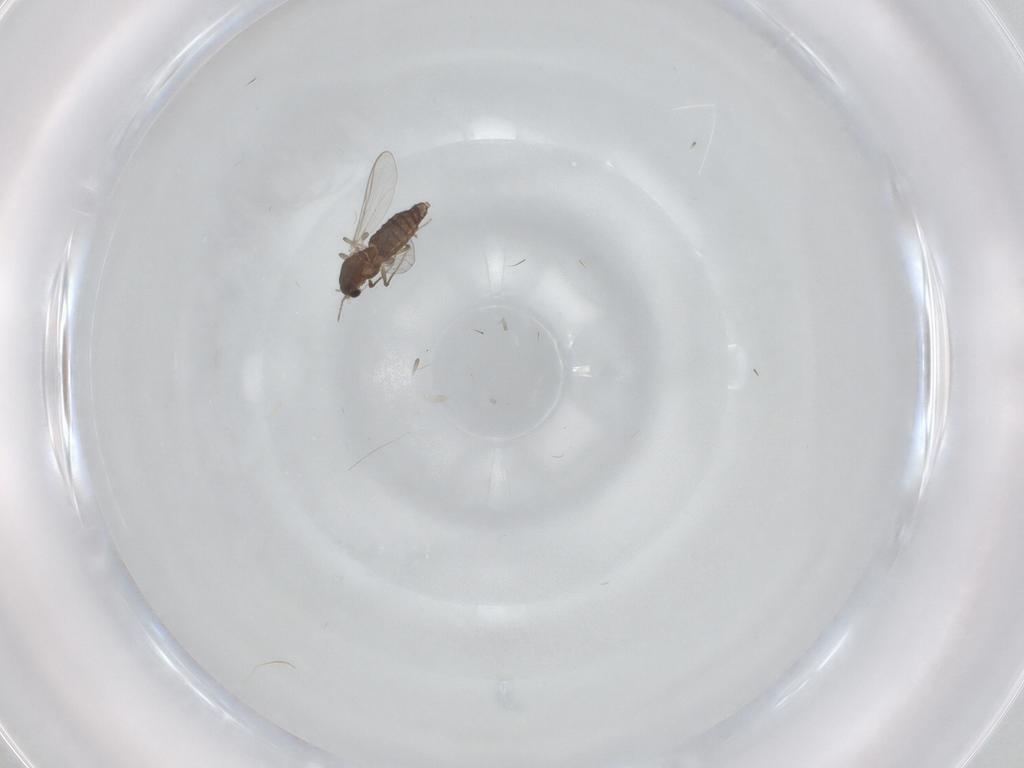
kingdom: Animalia
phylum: Arthropoda
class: Insecta
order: Diptera
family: Chironomidae
